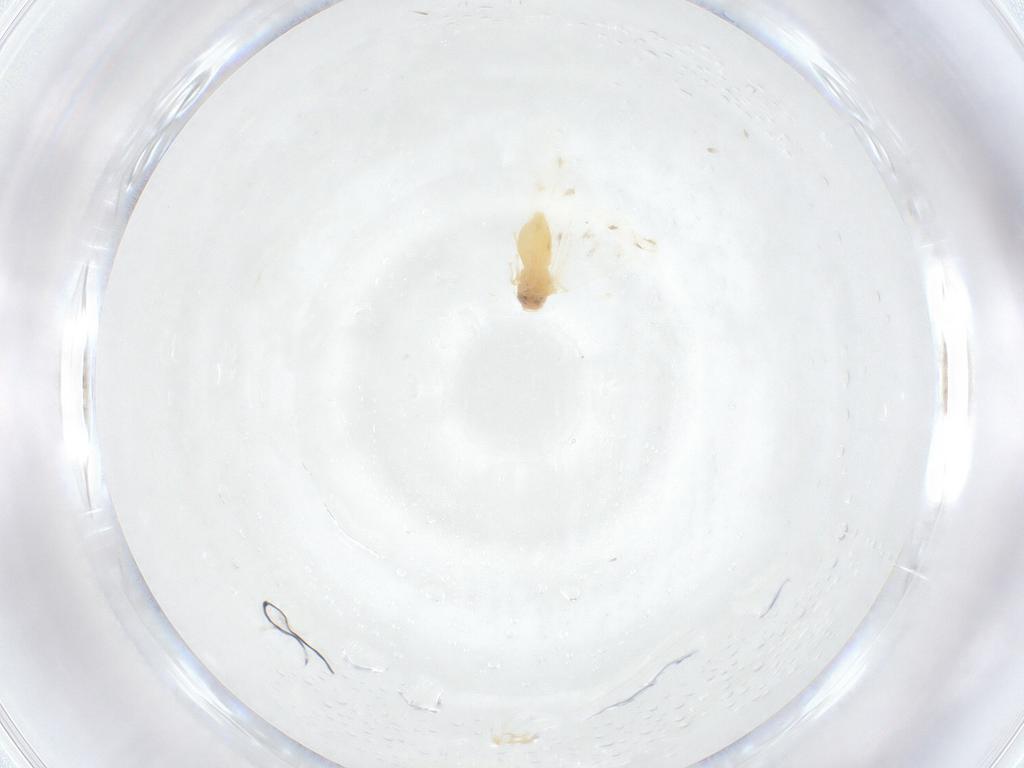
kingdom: Animalia
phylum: Arthropoda
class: Insecta
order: Hemiptera
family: Aleyrodidae
